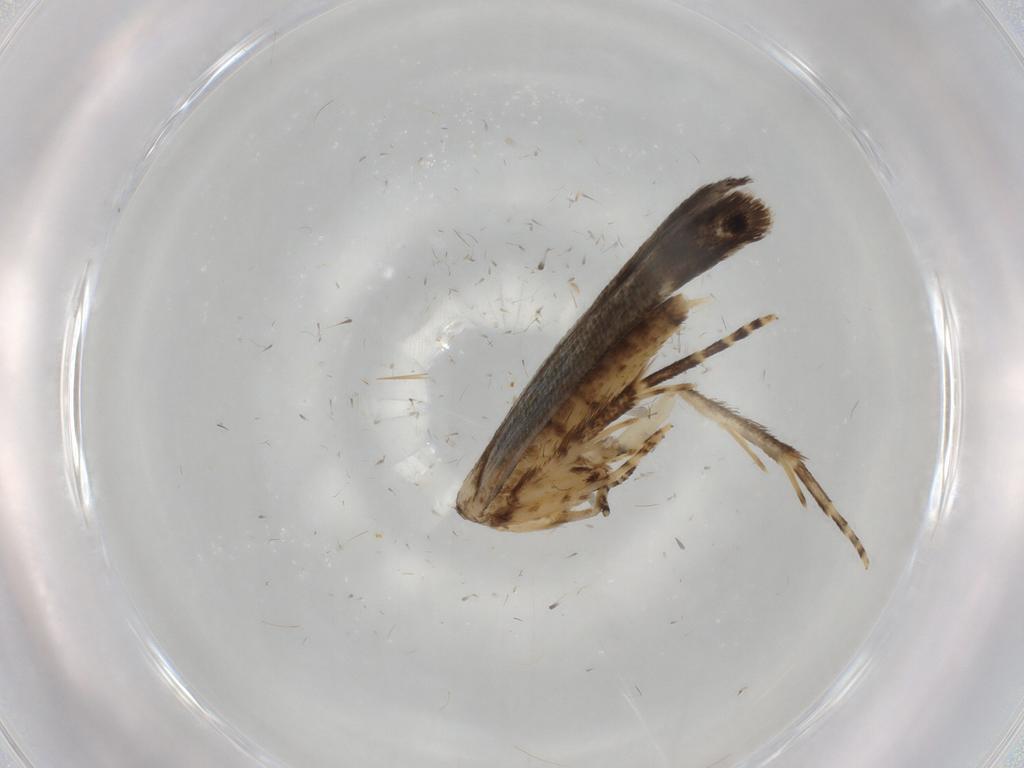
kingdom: Animalia
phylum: Arthropoda
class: Insecta
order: Lepidoptera
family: Cosmopterigidae
